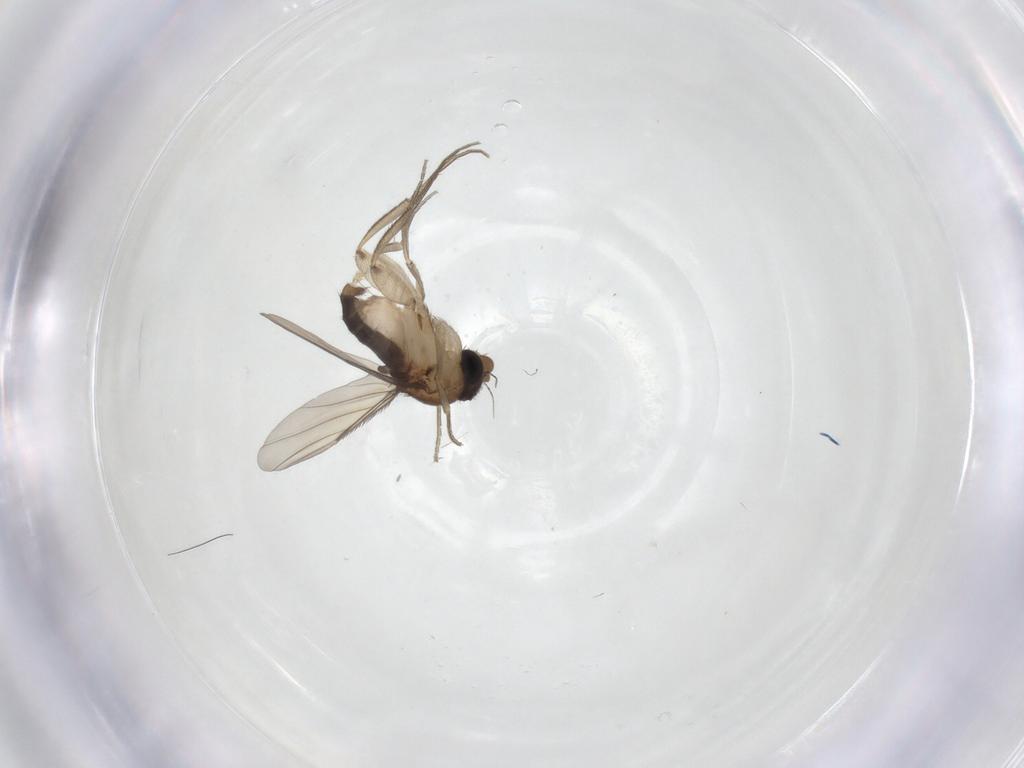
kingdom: Animalia
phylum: Arthropoda
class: Insecta
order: Diptera
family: Phoridae
